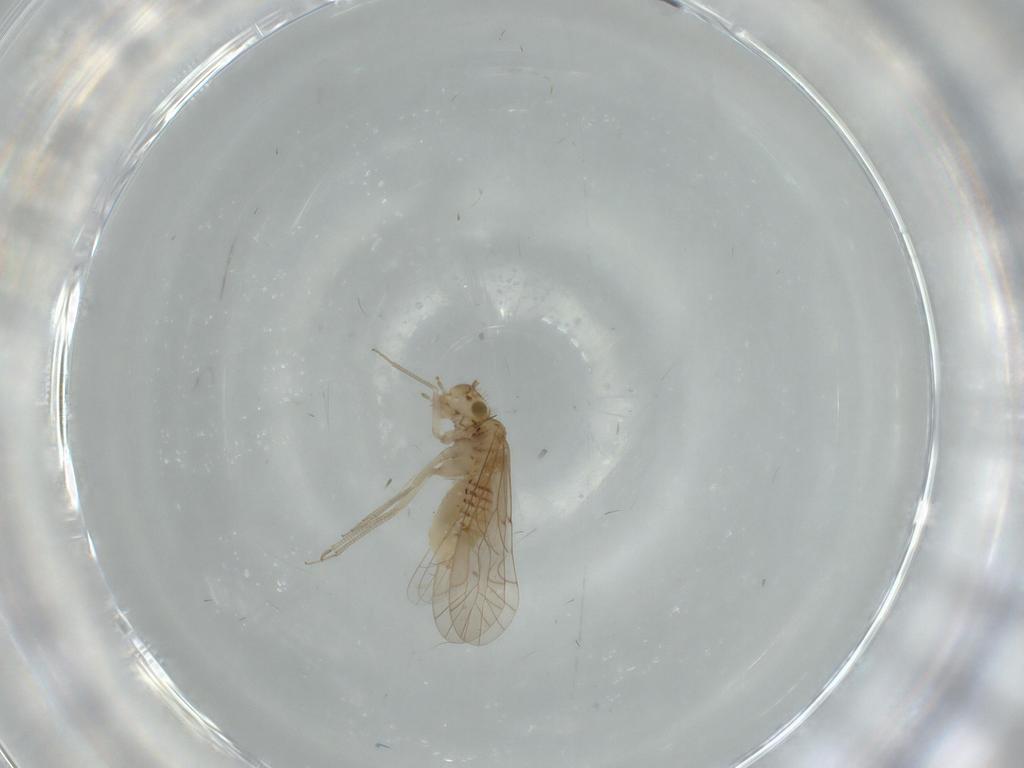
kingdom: Animalia
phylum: Arthropoda
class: Insecta
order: Psocodea
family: Lachesillidae
